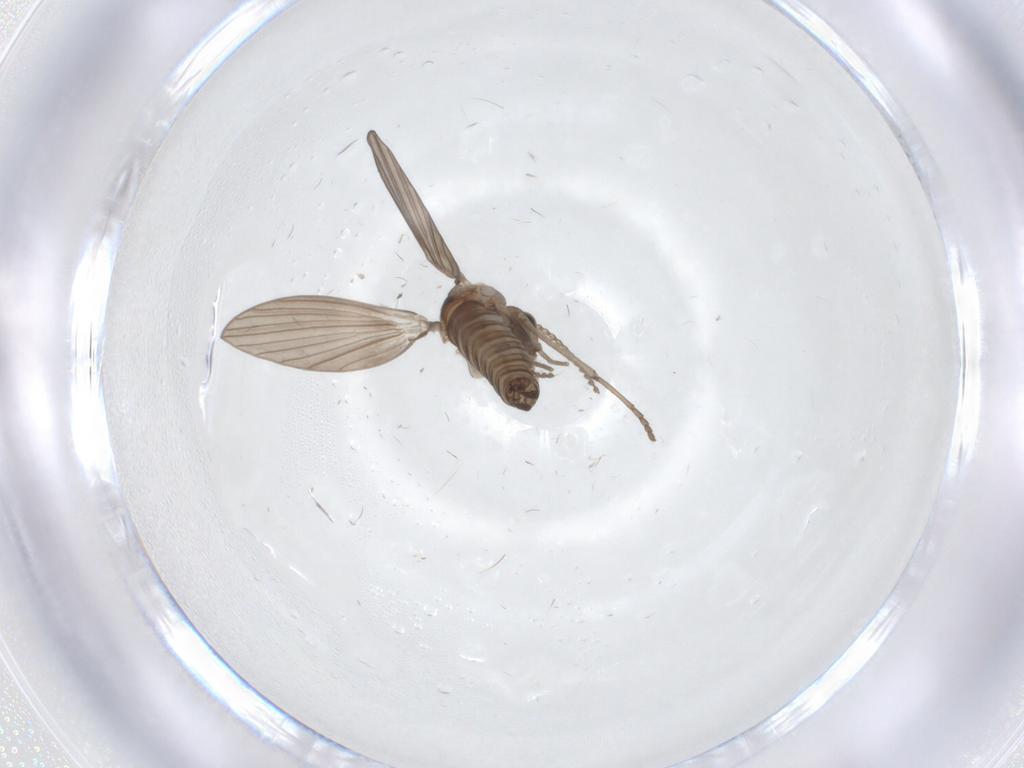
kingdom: Animalia
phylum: Arthropoda
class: Insecta
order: Diptera
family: Psychodidae
